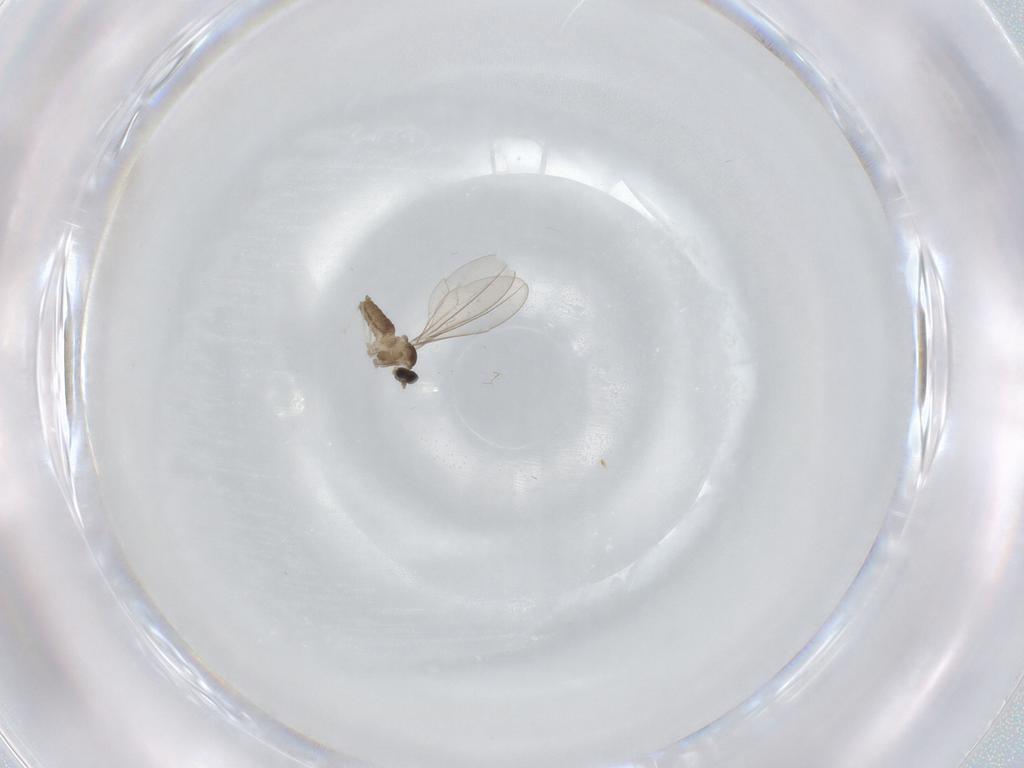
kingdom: Animalia
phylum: Arthropoda
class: Insecta
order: Diptera
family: Cecidomyiidae
